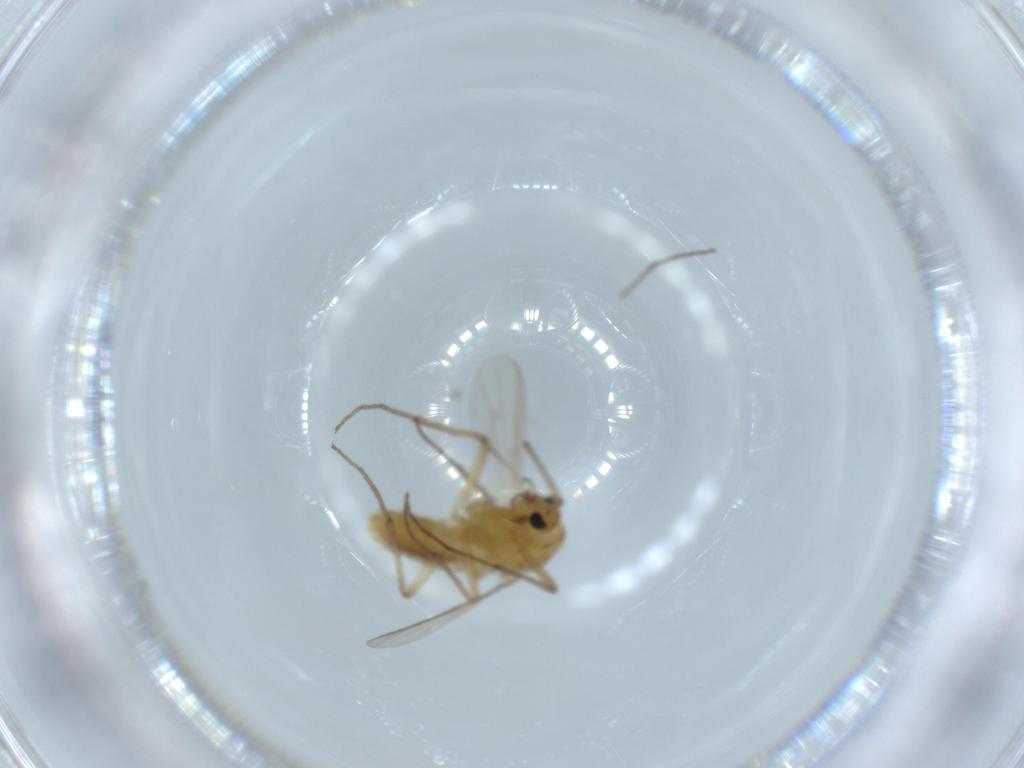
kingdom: Animalia
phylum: Arthropoda
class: Insecta
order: Diptera
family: Chironomidae
